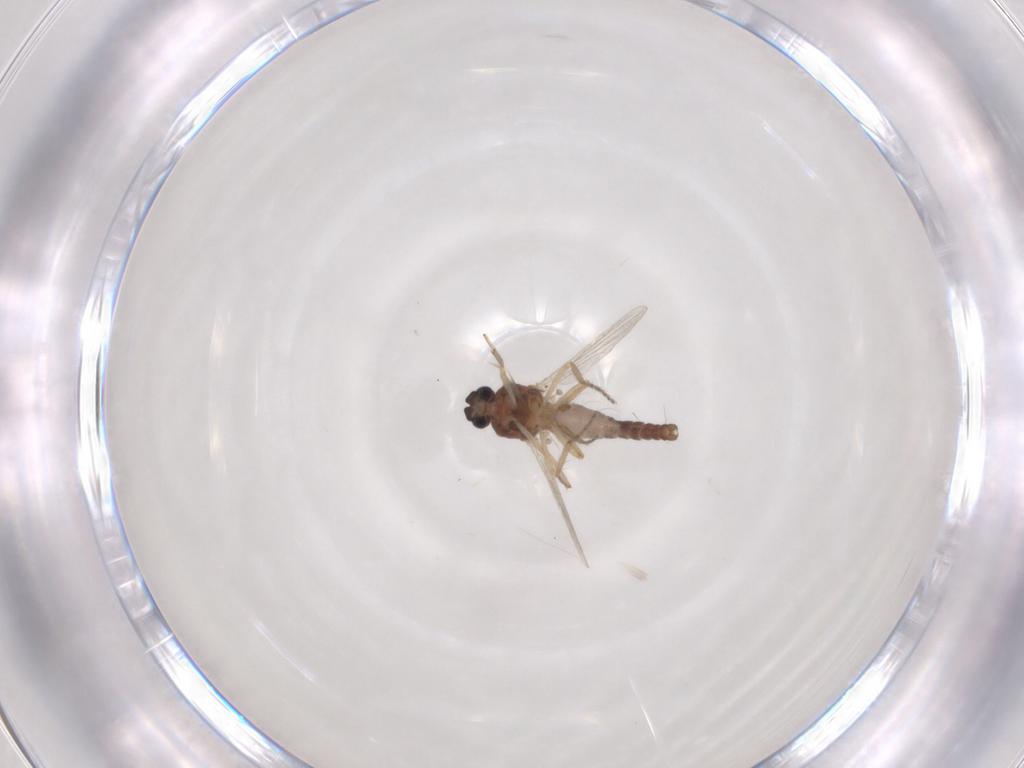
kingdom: Animalia
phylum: Arthropoda
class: Insecta
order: Diptera
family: Ceratopogonidae
